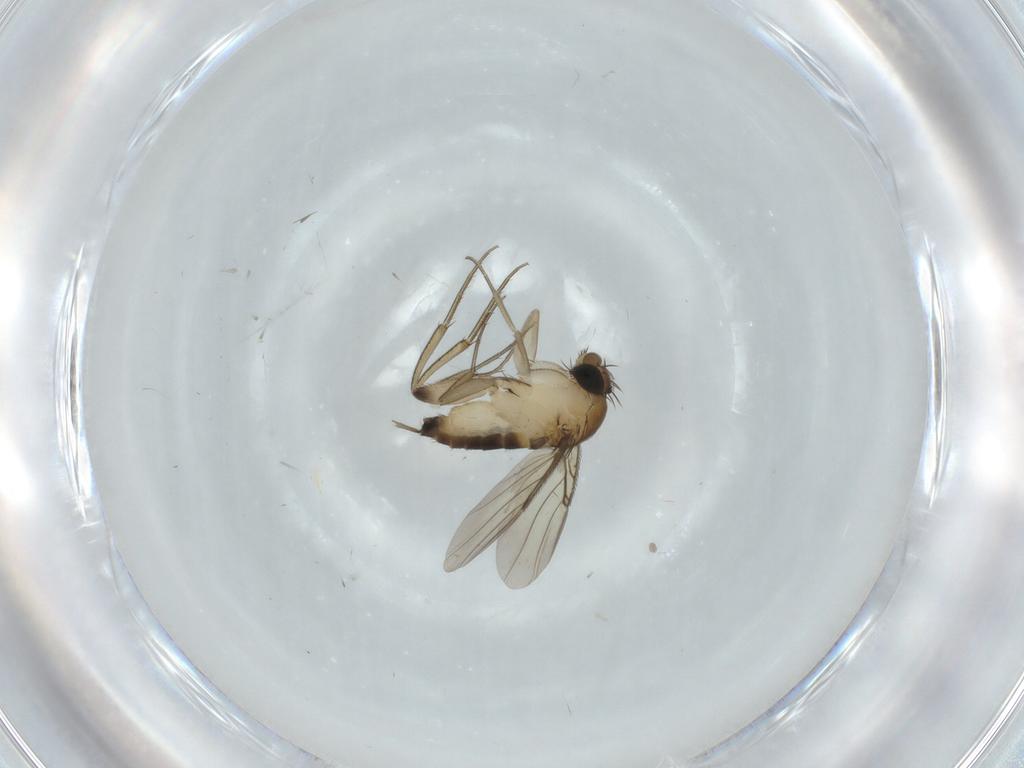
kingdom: Animalia
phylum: Arthropoda
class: Insecta
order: Diptera
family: Phoridae
